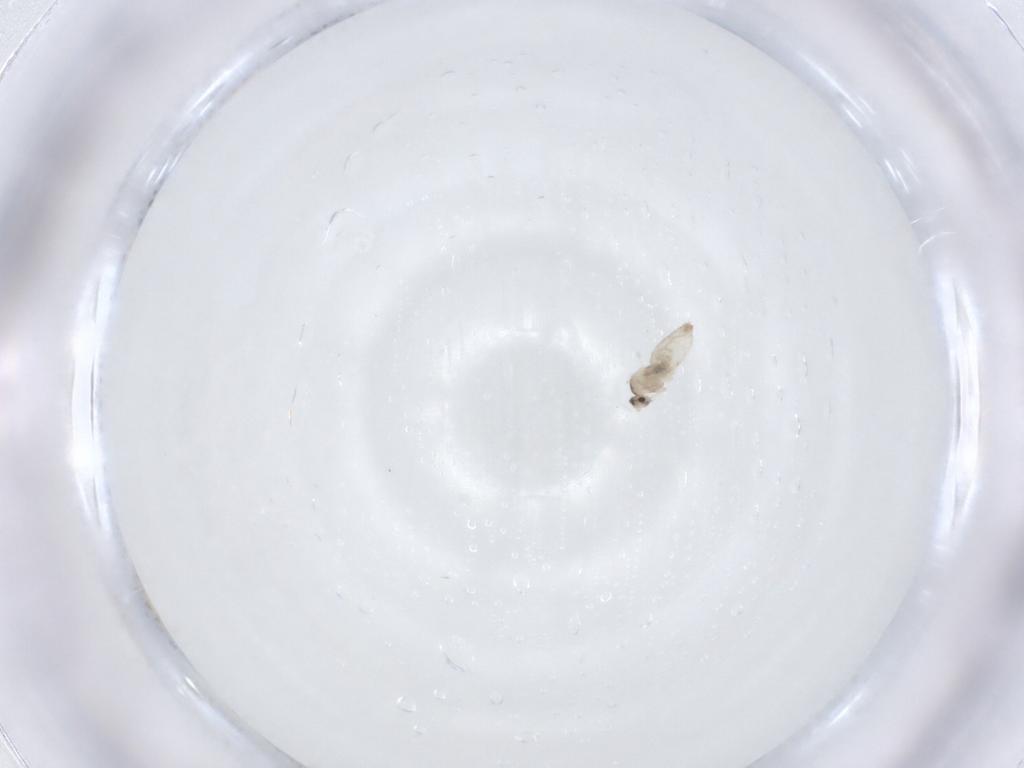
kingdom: Animalia
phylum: Arthropoda
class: Insecta
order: Diptera
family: Cecidomyiidae
